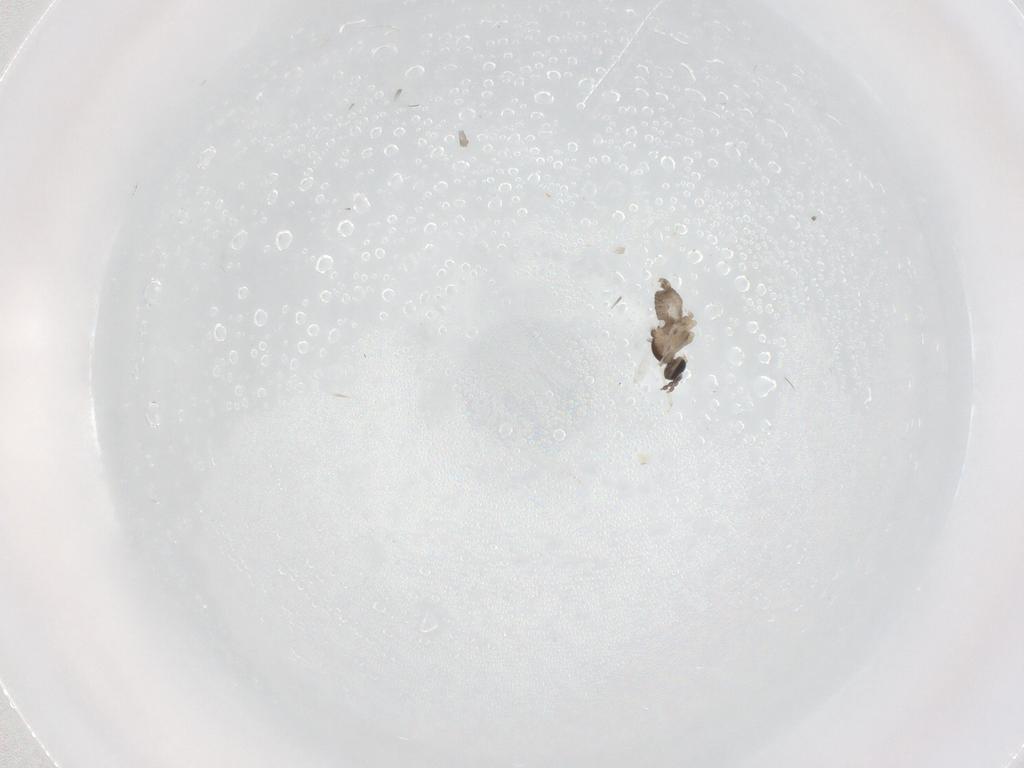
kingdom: Animalia
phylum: Arthropoda
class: Insecta
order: Diptera
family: Cecidomyiidae
